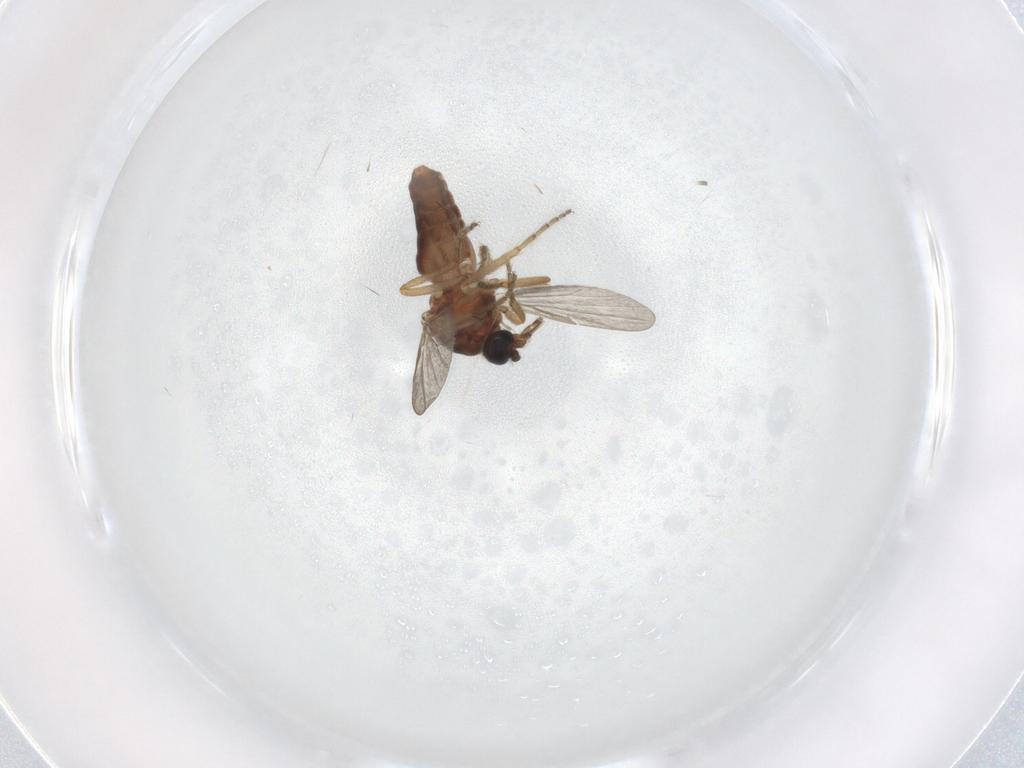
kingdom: Animalia
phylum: Arthropoda
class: Insecta
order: Diptera
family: Ceratopogonidae
